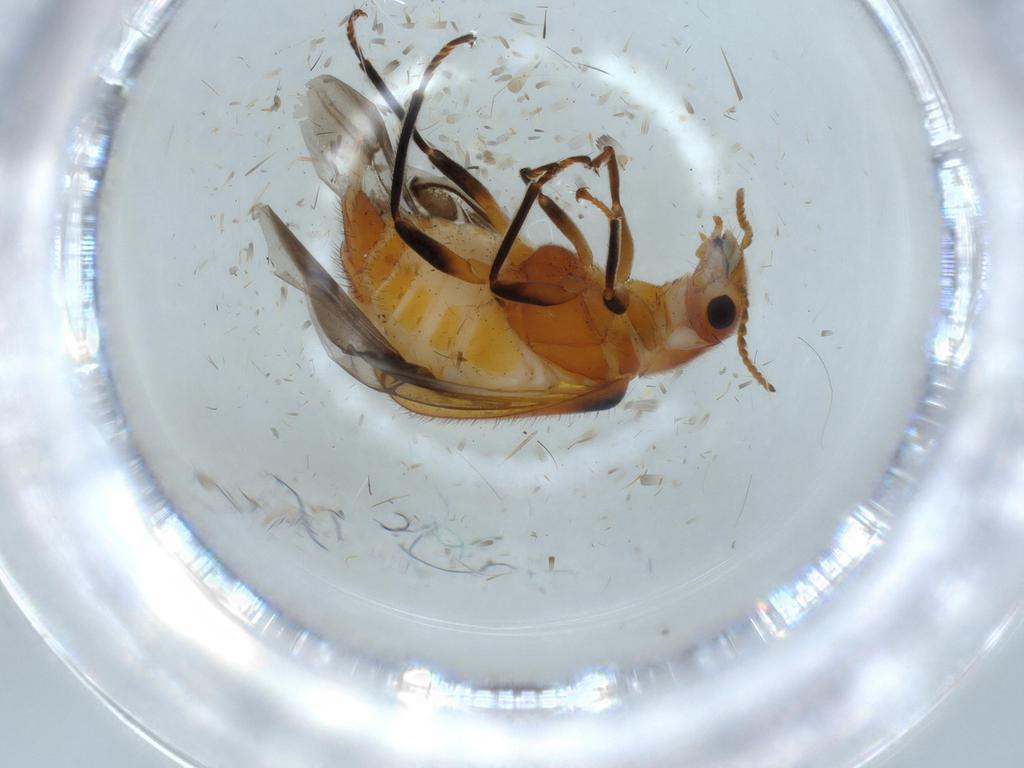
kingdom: Animalia
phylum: Arthropoda
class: Insecta
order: Coleoptera
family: Melyridae
